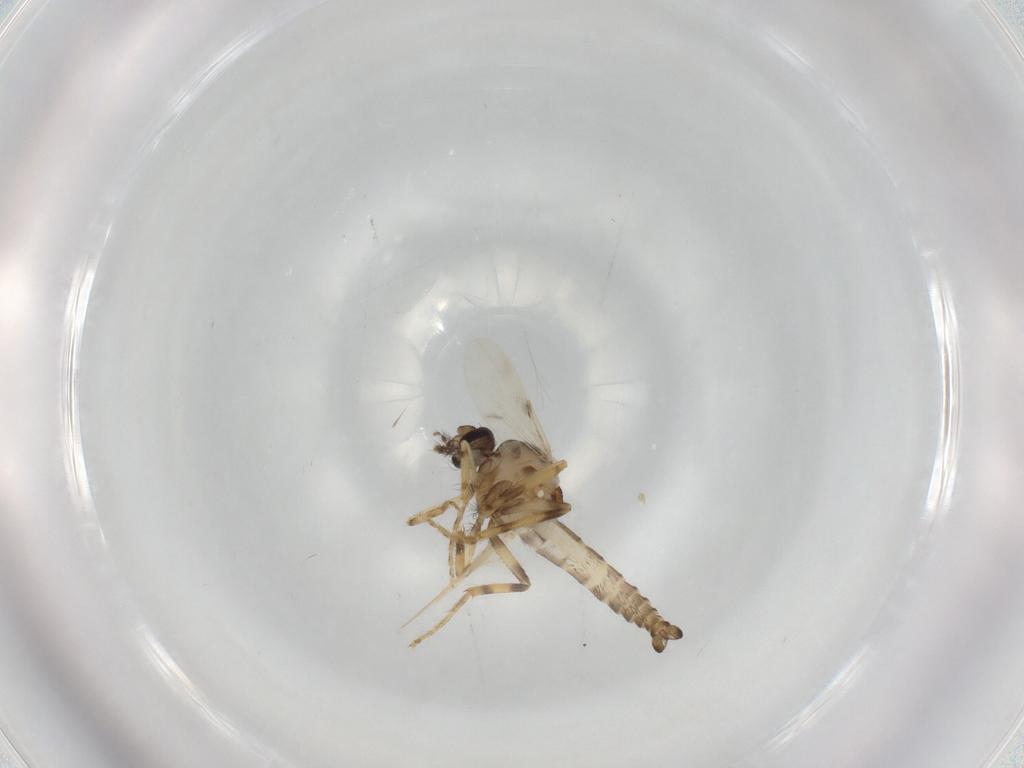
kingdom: Animalia
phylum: Arthropoda
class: Insecta
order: Diptera
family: Ceratopogonidae
